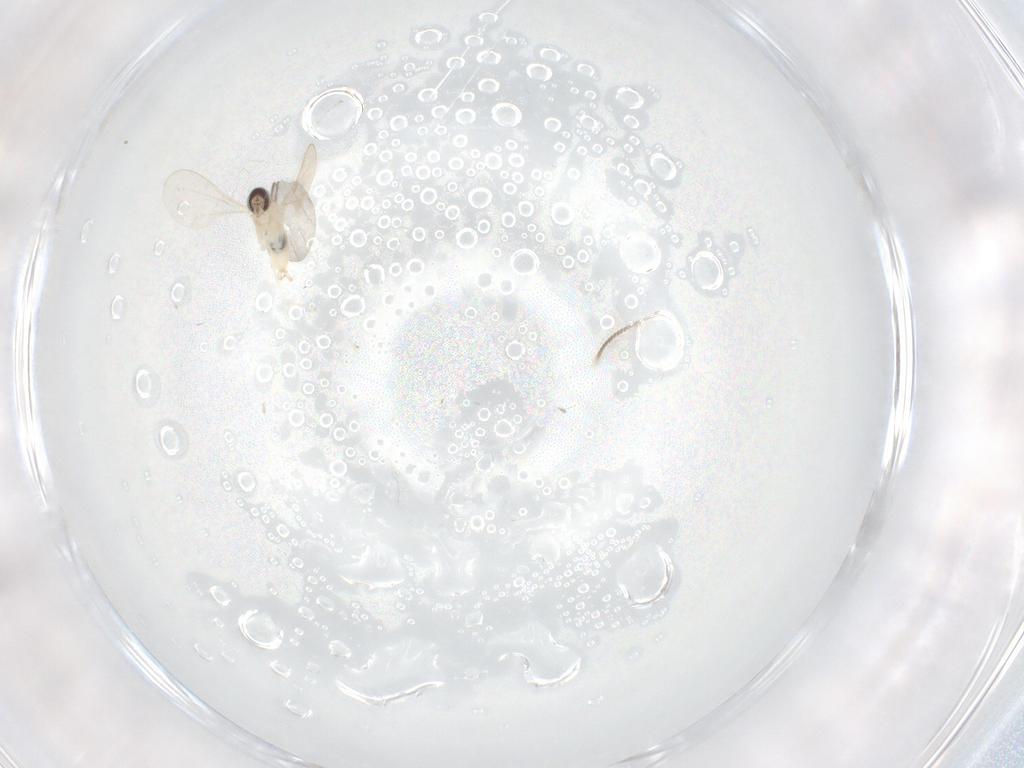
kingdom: Animalia
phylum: Arthropoda
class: Insecta
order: Diptera
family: Chironomidae
